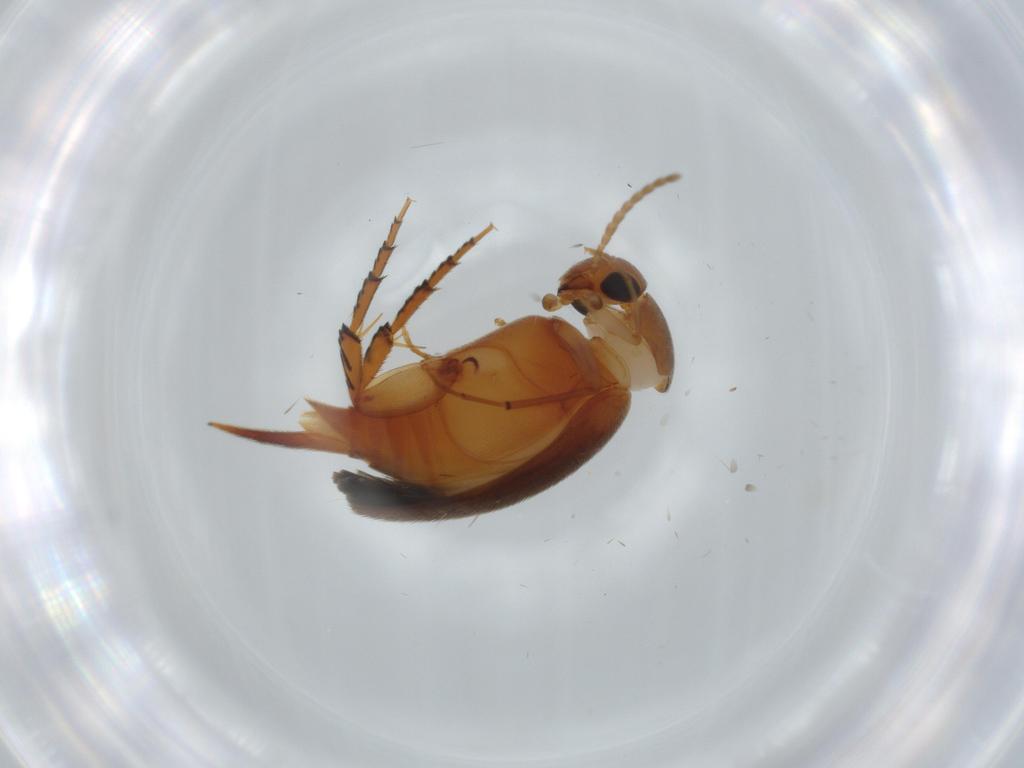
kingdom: Animalia
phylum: Arthropoda
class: Insecta
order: Coleoptera
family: Mordellidae
